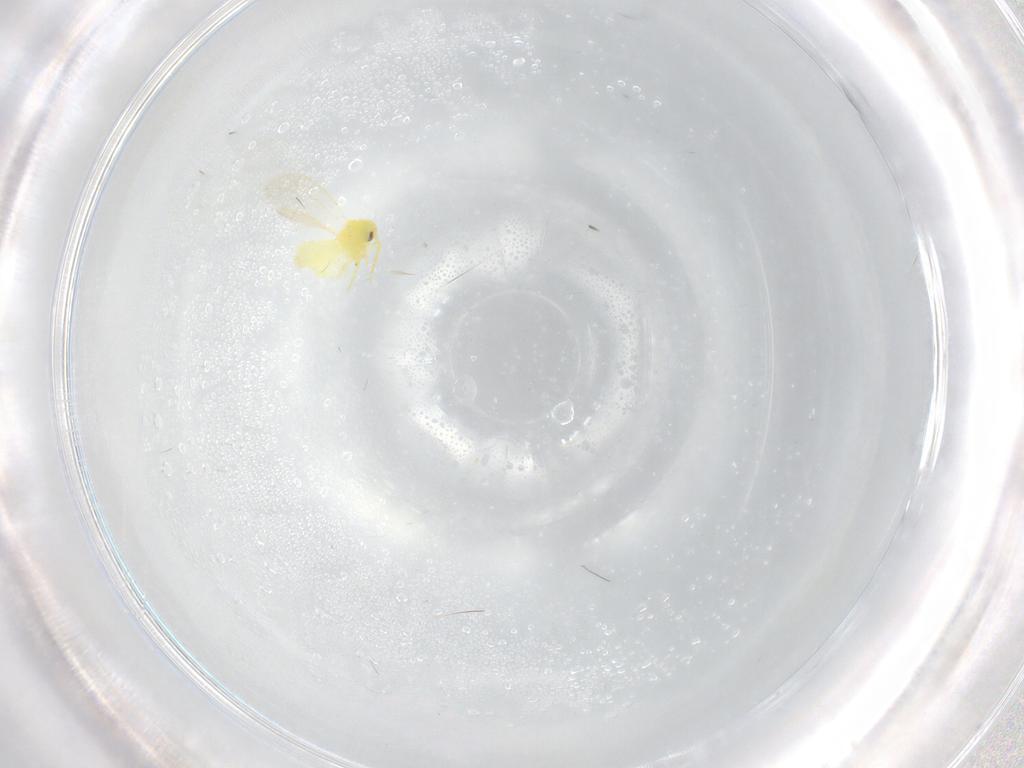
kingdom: Animalia
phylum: Arthropoda
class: Insecta
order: Hemiptera
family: Aleyrodidae
